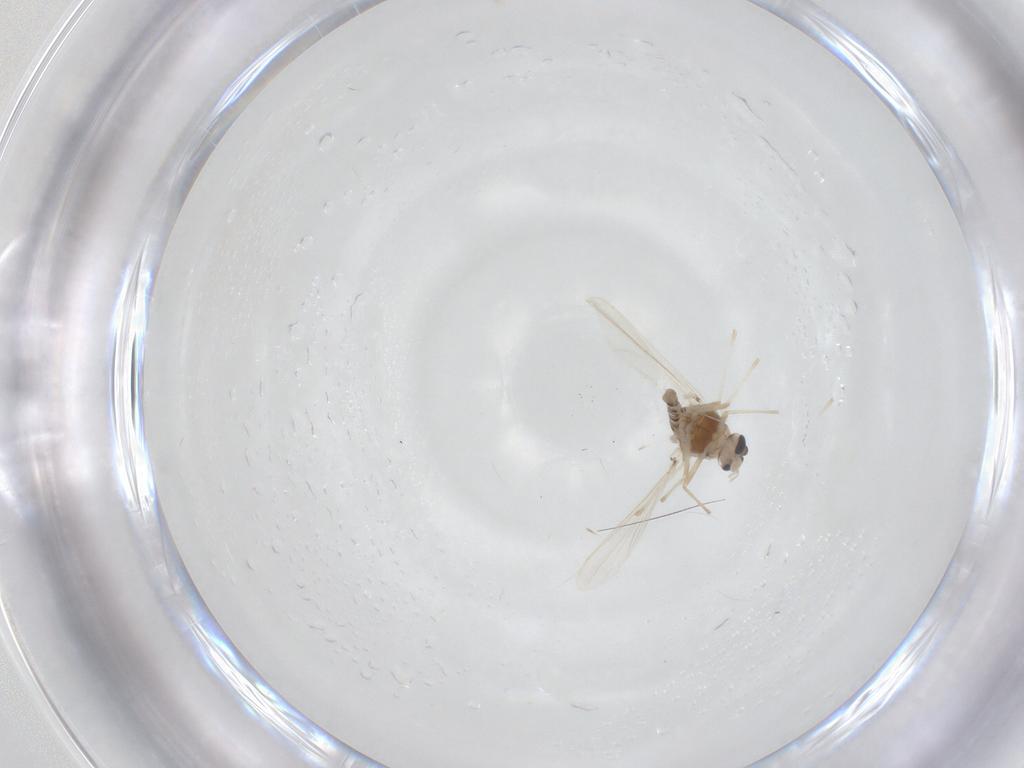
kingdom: Animalia
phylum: Arthropoda
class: Insecta
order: Diptera
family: Chironomidae
